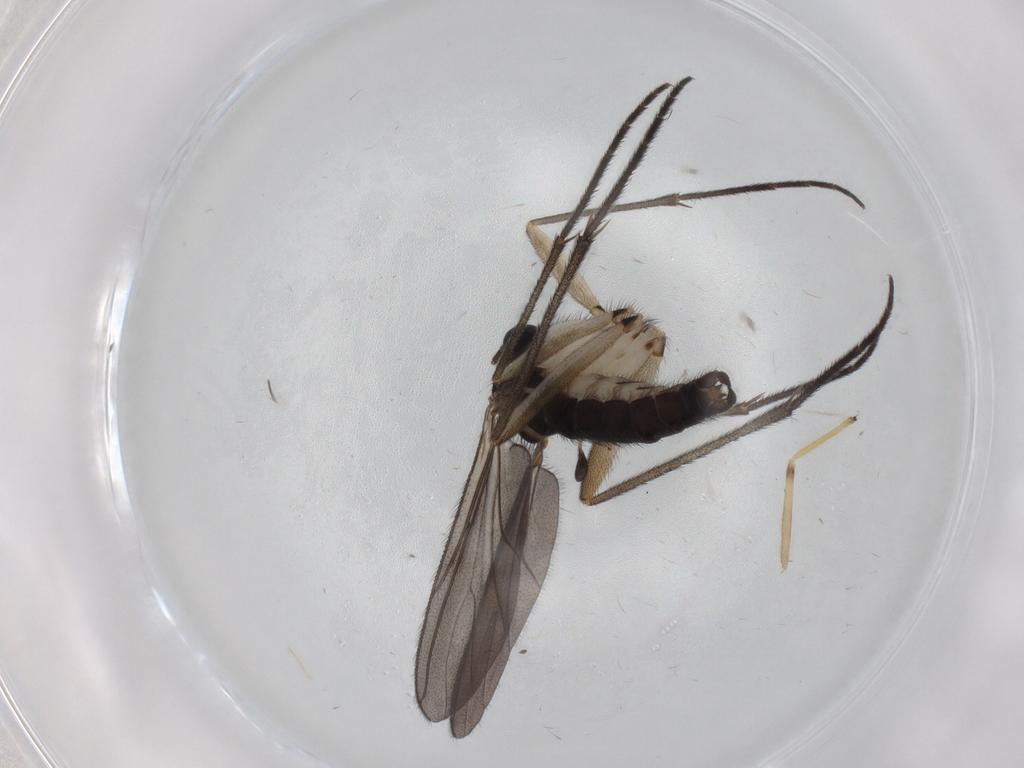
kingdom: Animalia
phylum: Arthropoda
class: Insecta
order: Diptera
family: Sciaridae
